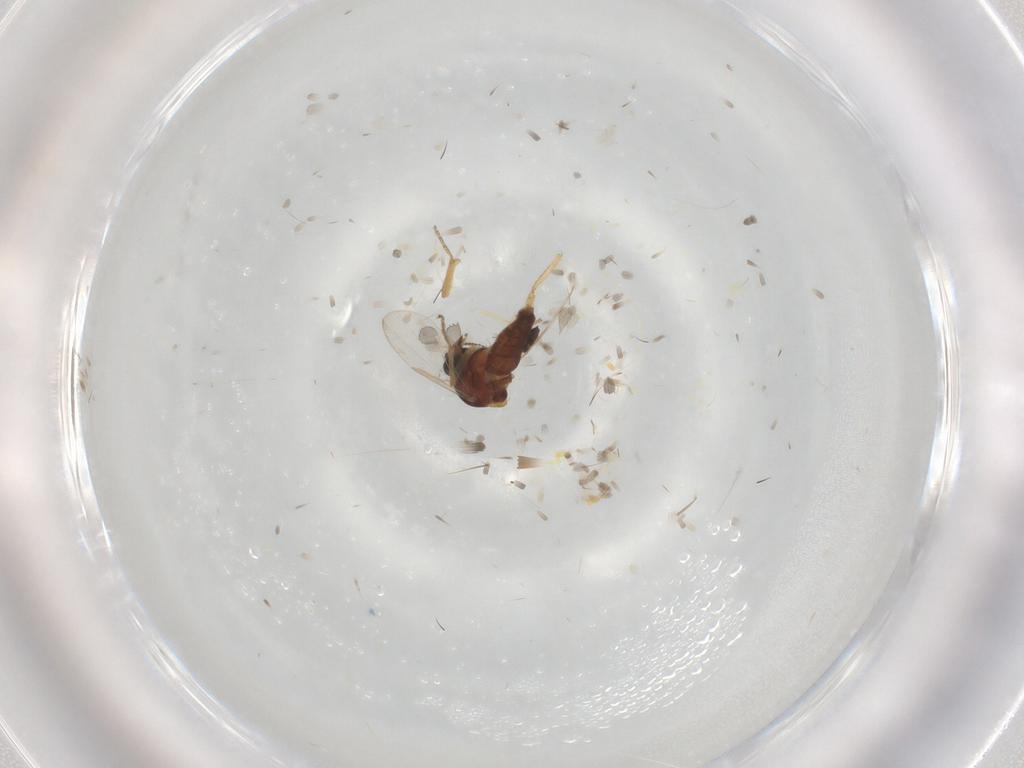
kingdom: Animalia
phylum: Arthropoda
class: Insecta
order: Diptera
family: Ceratopogonidae
